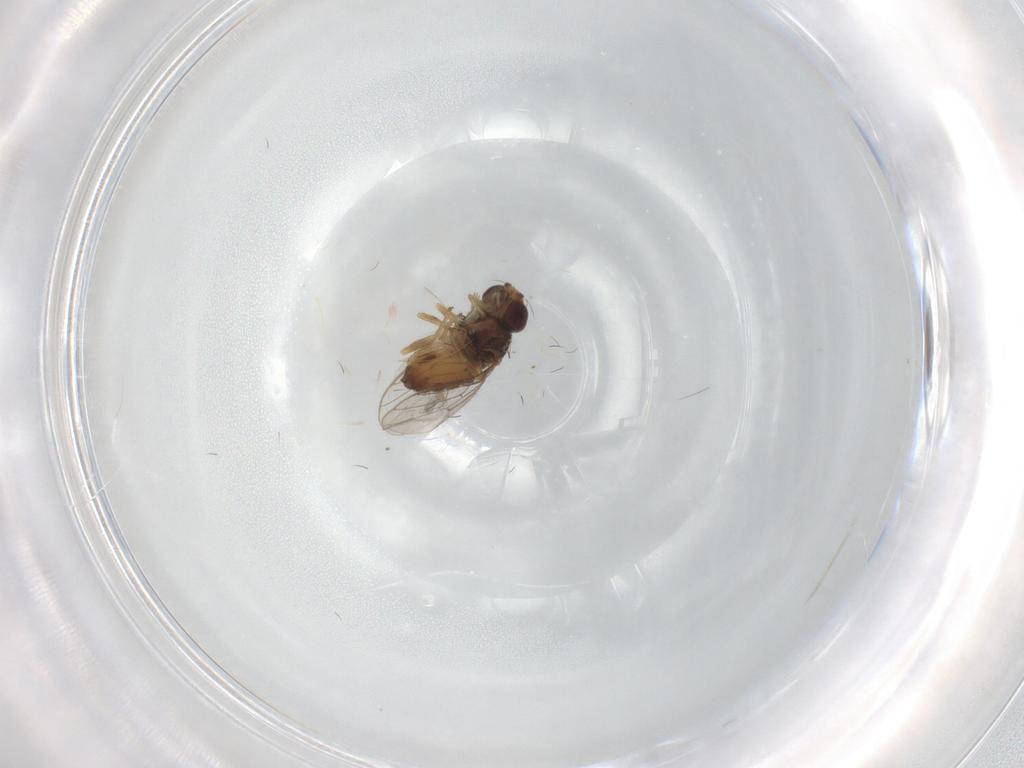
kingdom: Animalia
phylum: Arthropoda
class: Insecta
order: Diptera
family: Chloropidae
